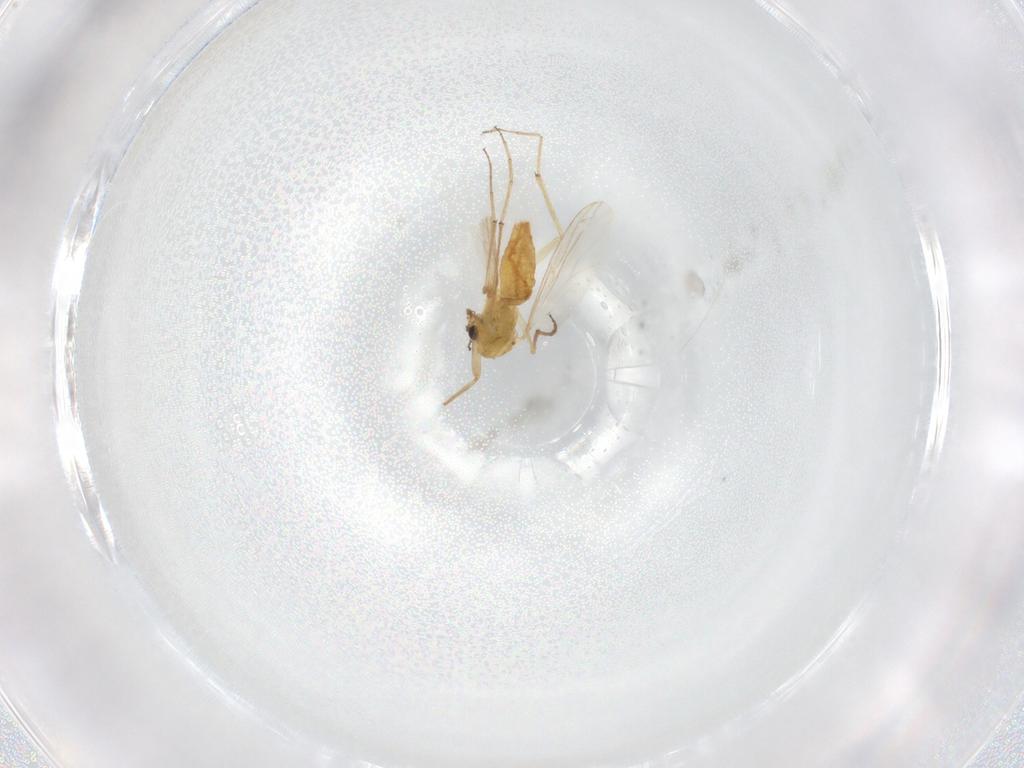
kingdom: Animalia
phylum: Arthropoda
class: Insecta
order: Diptera
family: Chironomidae
